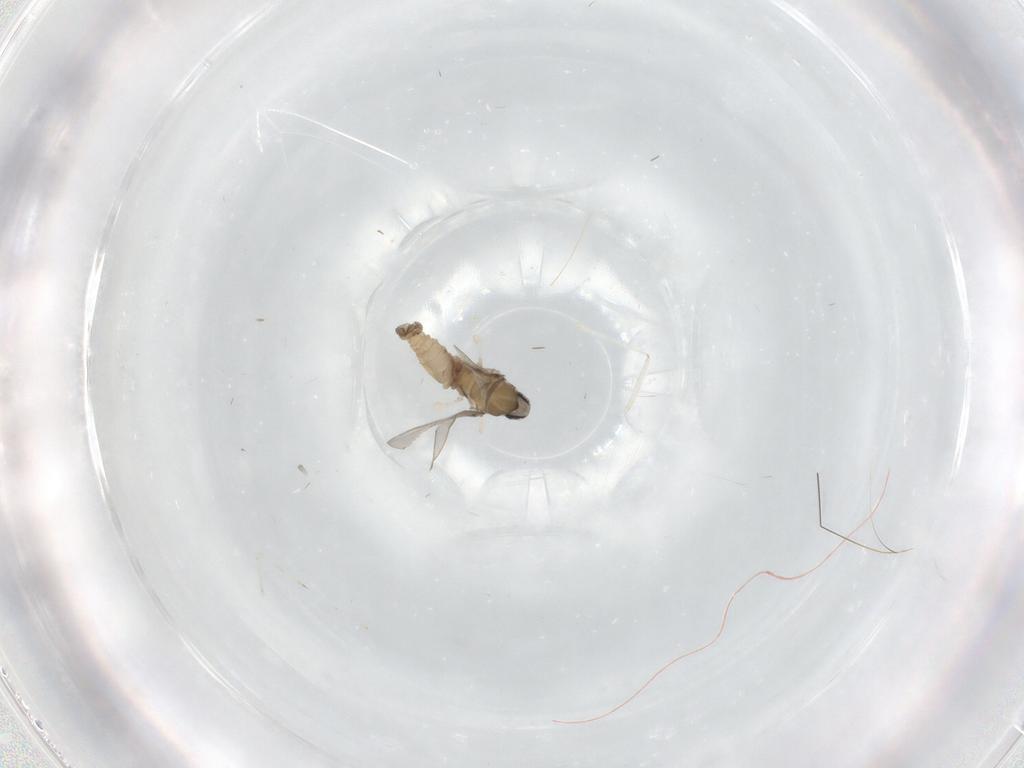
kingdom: Animalia
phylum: Arthropoda
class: Insecta
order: Diptera
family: Cecidomyiidae
